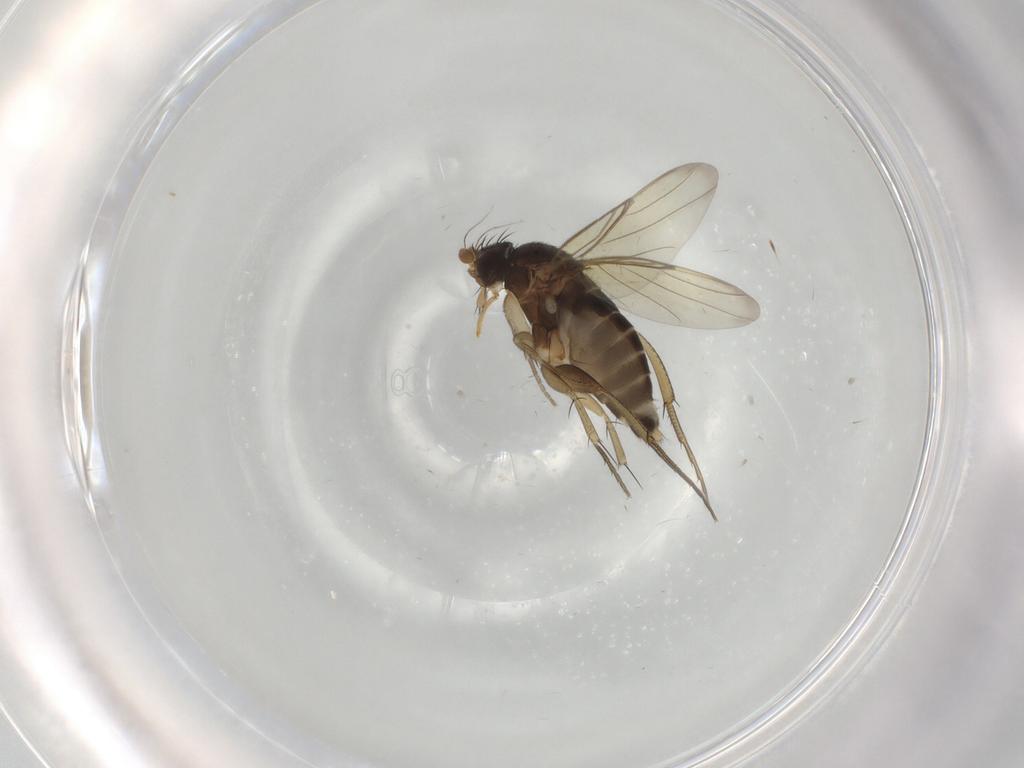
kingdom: Animalia
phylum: Arthropoda
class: Insecta
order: Diptera
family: Phoridae
